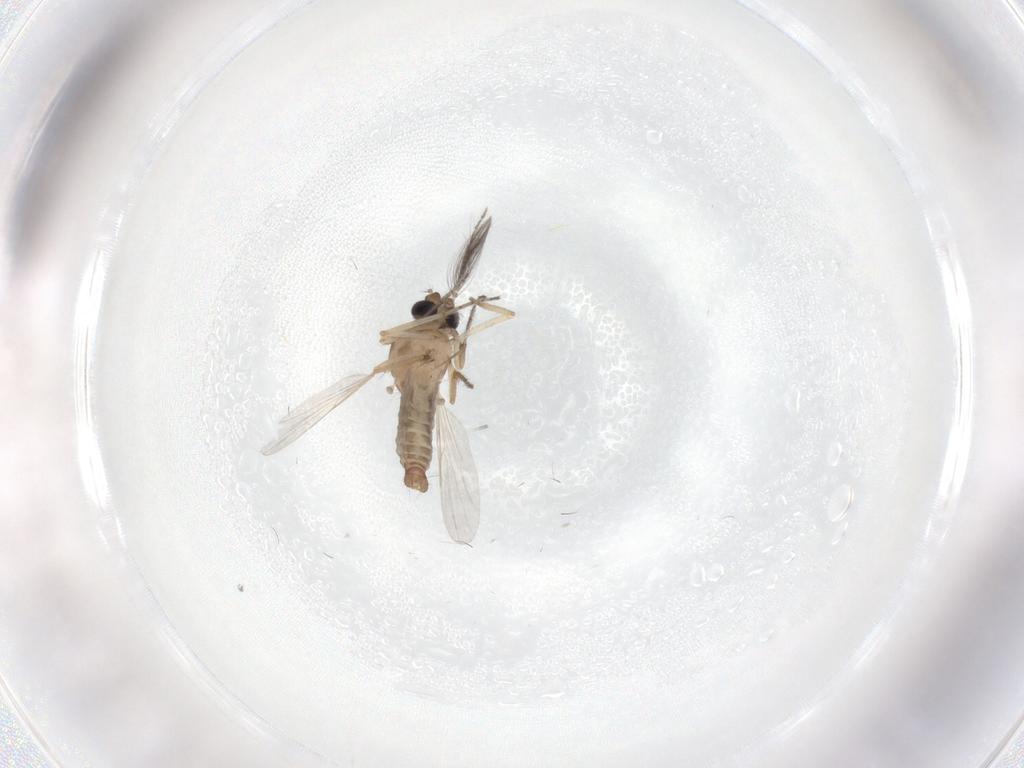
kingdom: Animalia
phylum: Arthropoda
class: Insecta
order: Diptera
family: Ceratopogonidae
